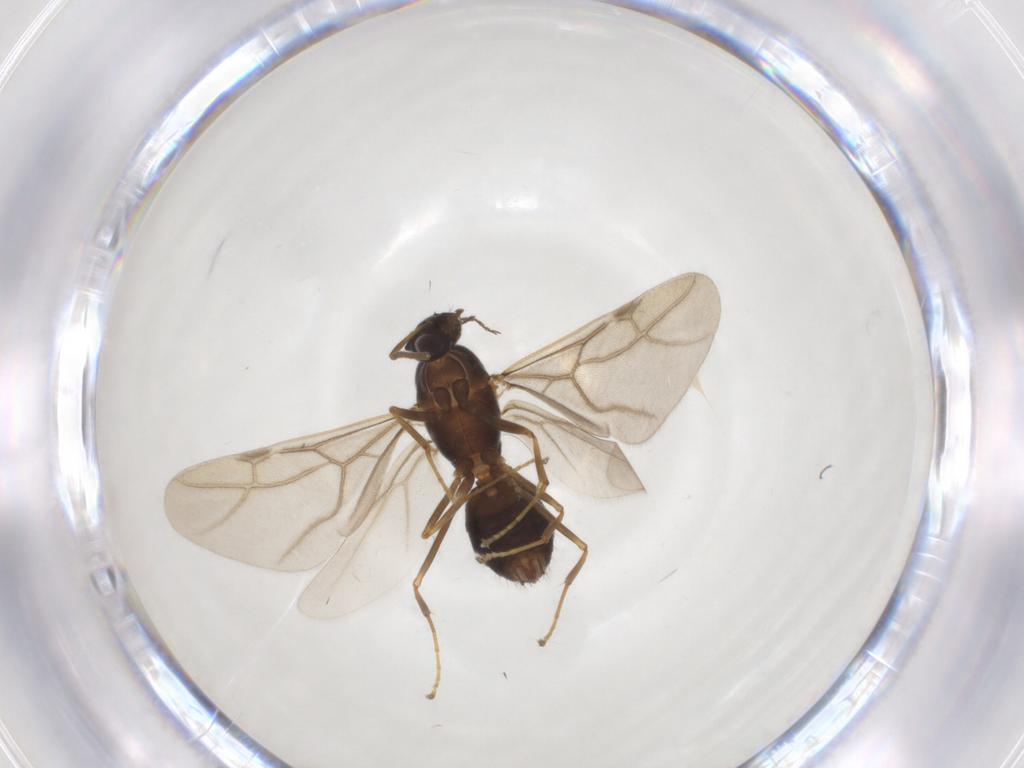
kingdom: Animalia
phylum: Arthropoda
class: Insecta
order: Hymenoptera
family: Formicidae
